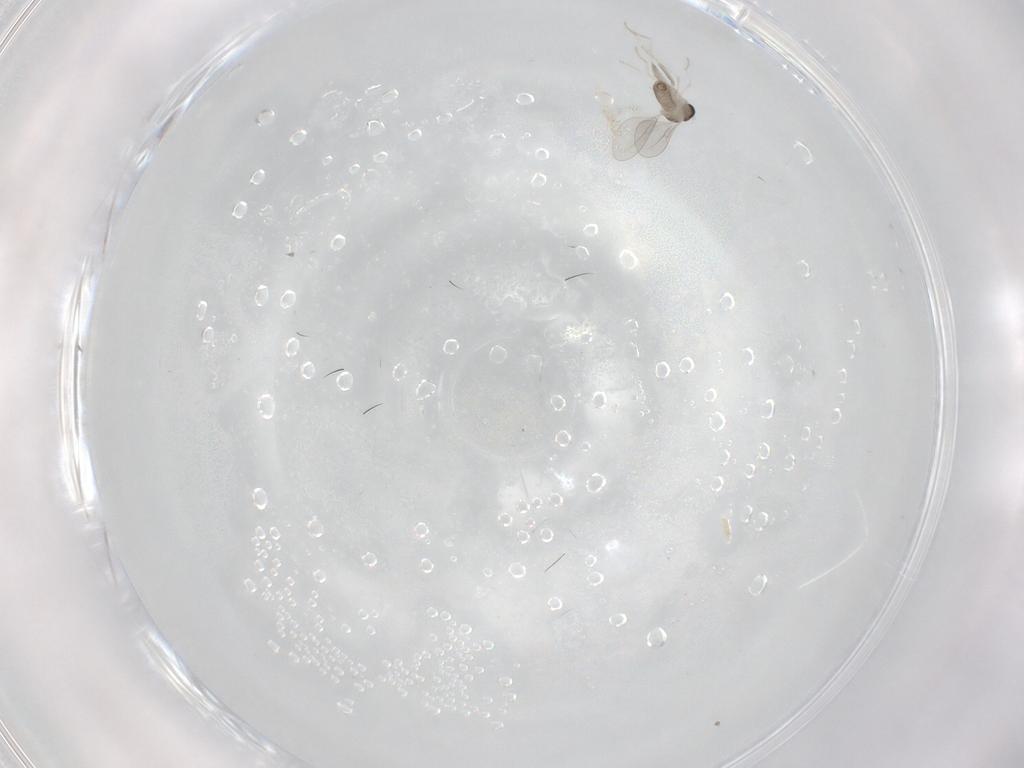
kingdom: Animalia
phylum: Arthropoda
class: Insecta
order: Diptera
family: Cecidomyiidae
